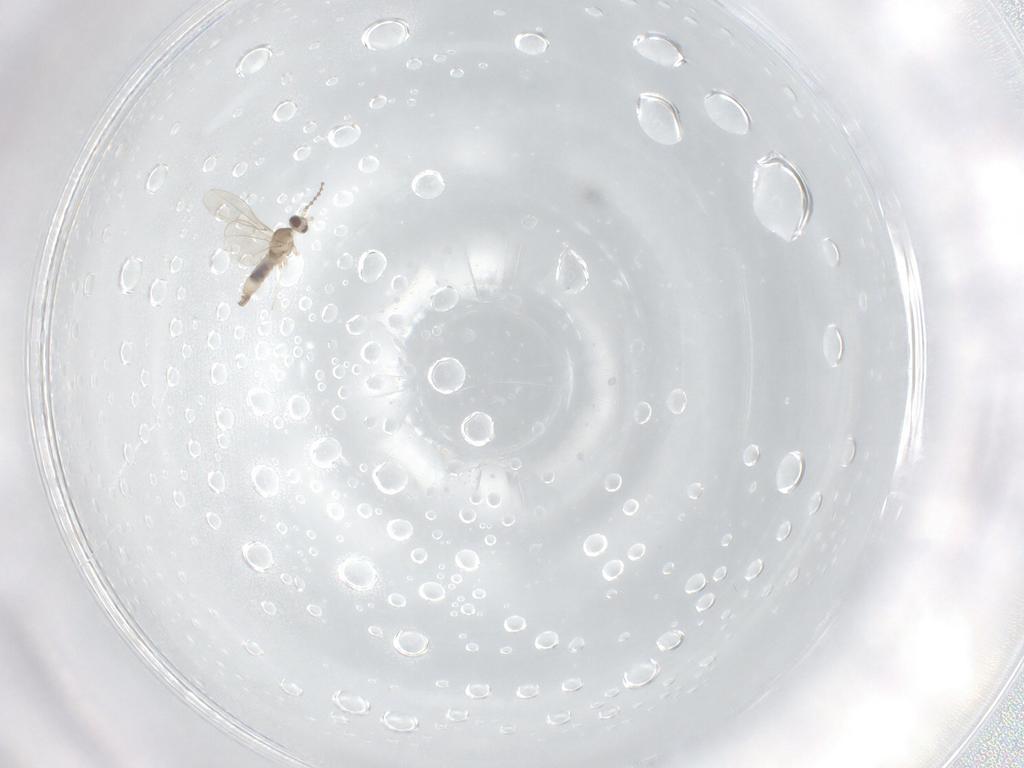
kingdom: Animalia
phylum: Arthropoda
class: Insecta
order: Diptera
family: Cecidomyiidae
